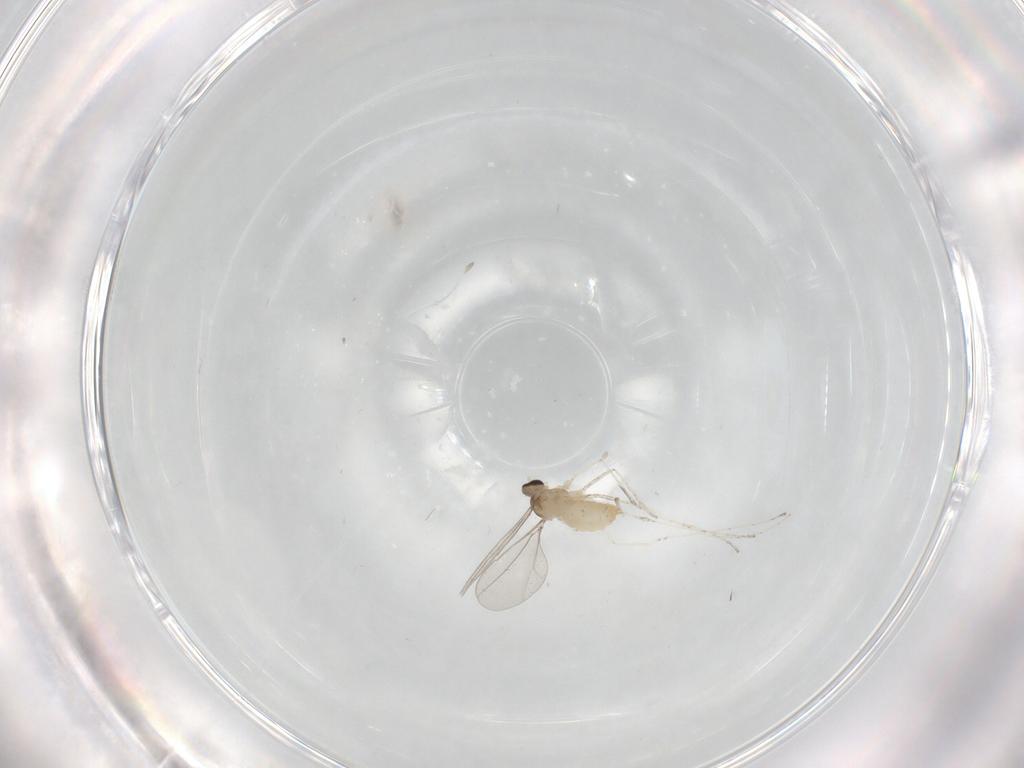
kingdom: Animalia
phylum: Arthropoda
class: Insecta
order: Diptera
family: Cecidomyiidae
